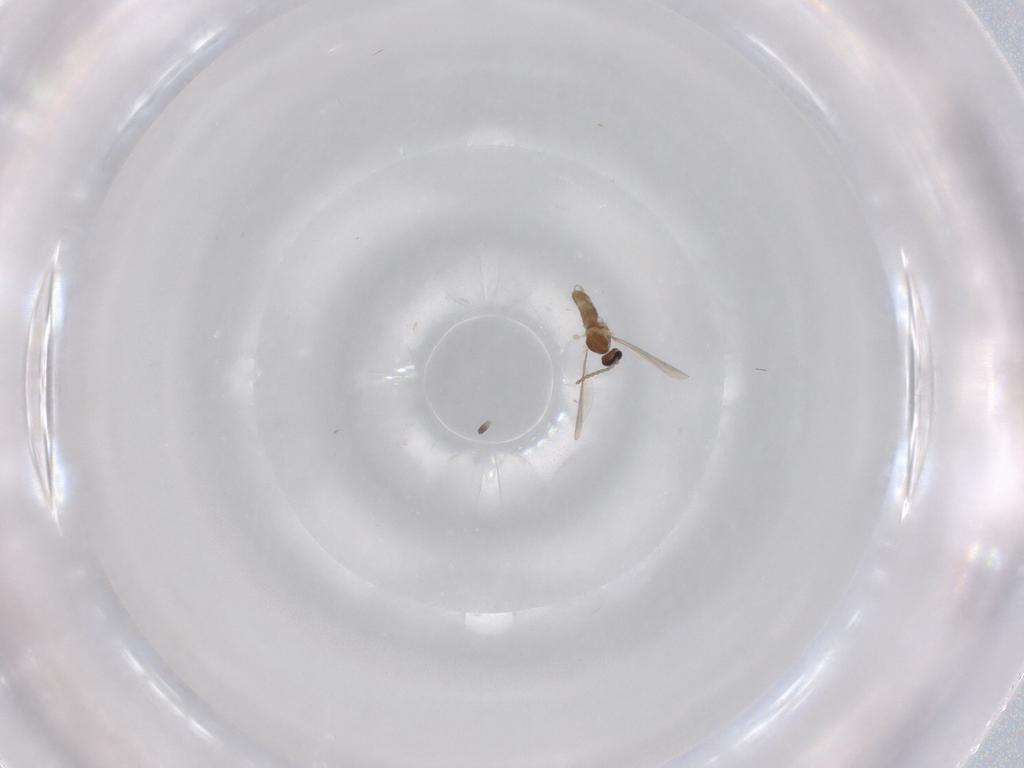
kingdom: Animalia
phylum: Arthropoda
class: Insecta
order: Diptera
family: Cecidomyiidae
